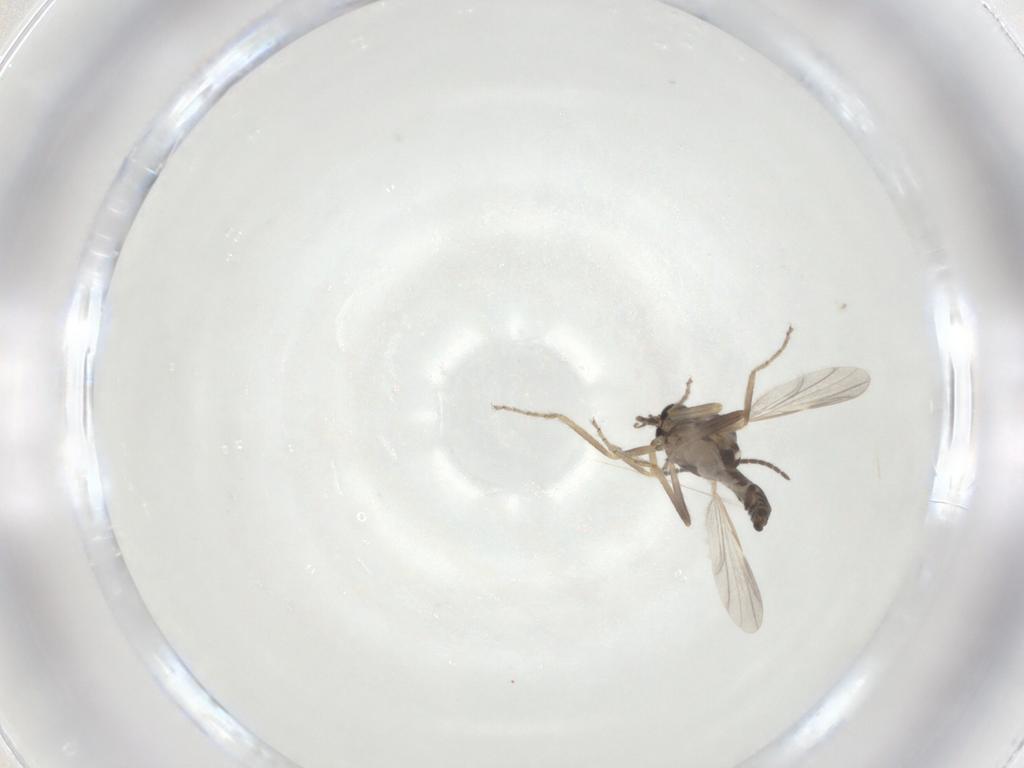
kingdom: Animalia
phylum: Arthropoda
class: Insecta
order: Diptera
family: Sciaridae
